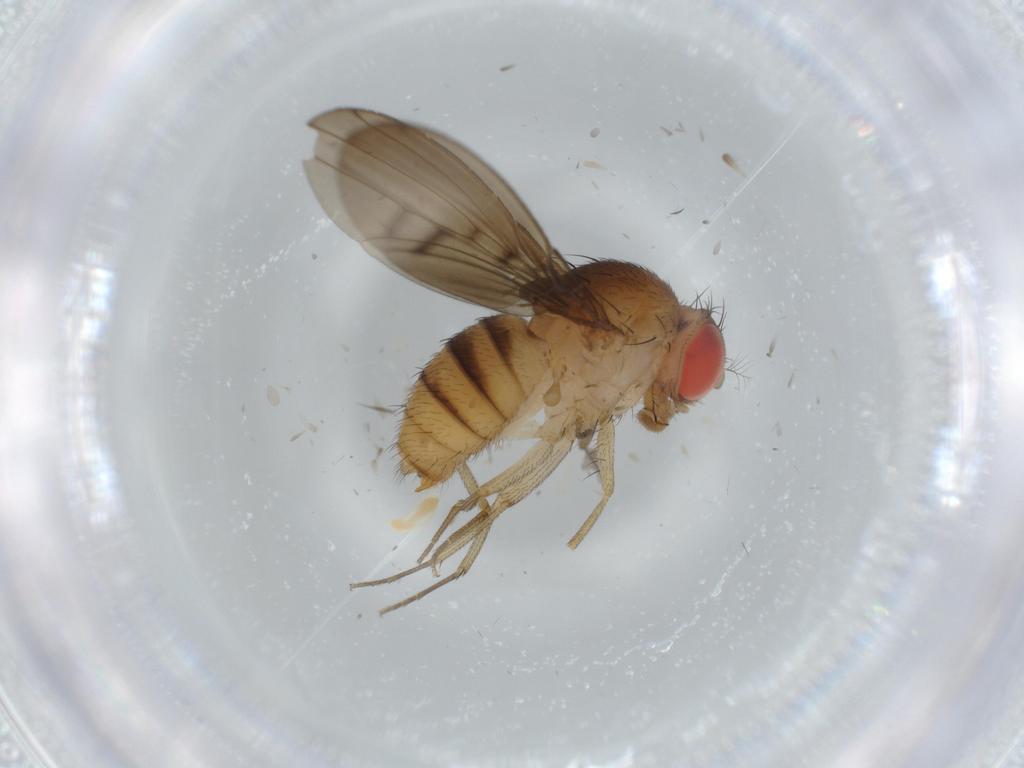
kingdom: Animalia
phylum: Arthropoda
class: Insecta
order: Diptera
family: Drosophilidae
